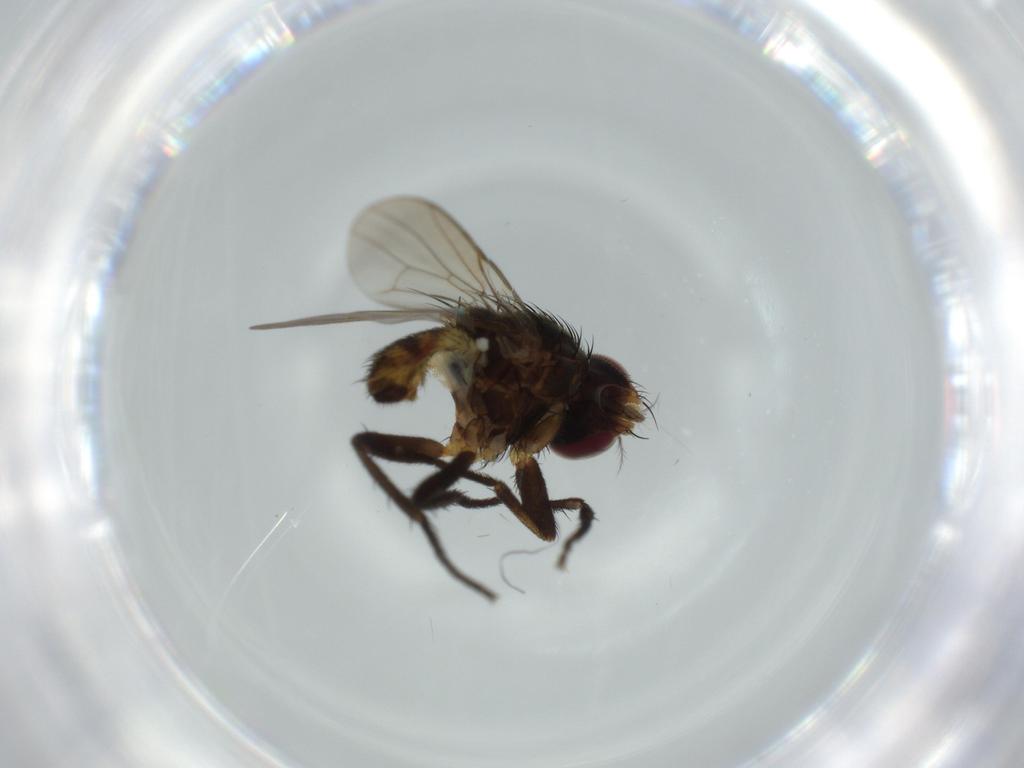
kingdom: Animalia
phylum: Arthropoda
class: Insecta
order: Diptera
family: Anthomyiidae
